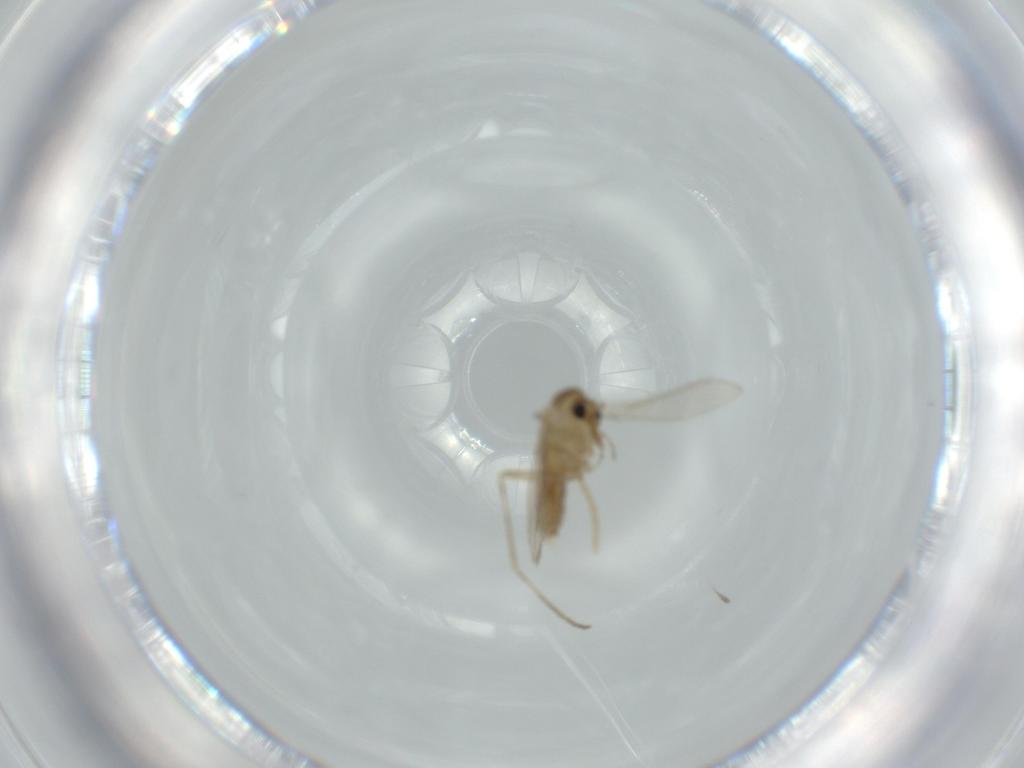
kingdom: Animalia
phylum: Arthropoda
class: Insecta
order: Diptera
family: Psychodidae
